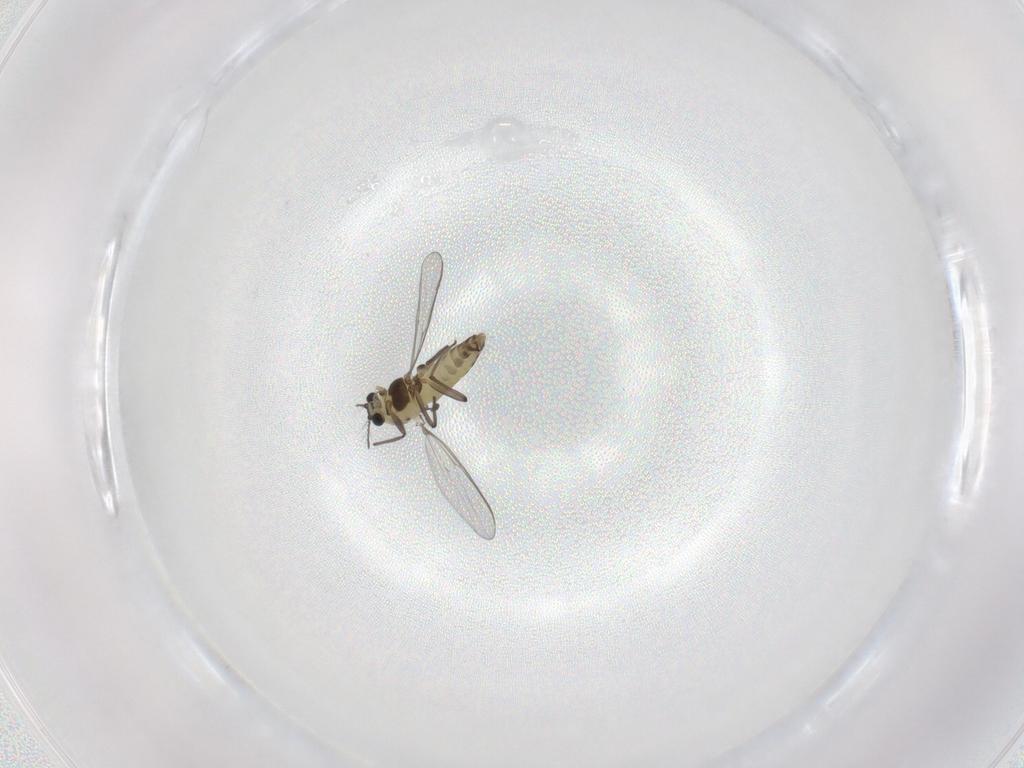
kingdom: Animalia
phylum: Arthropoda
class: Insecta
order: Diptera
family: Chironomidae
